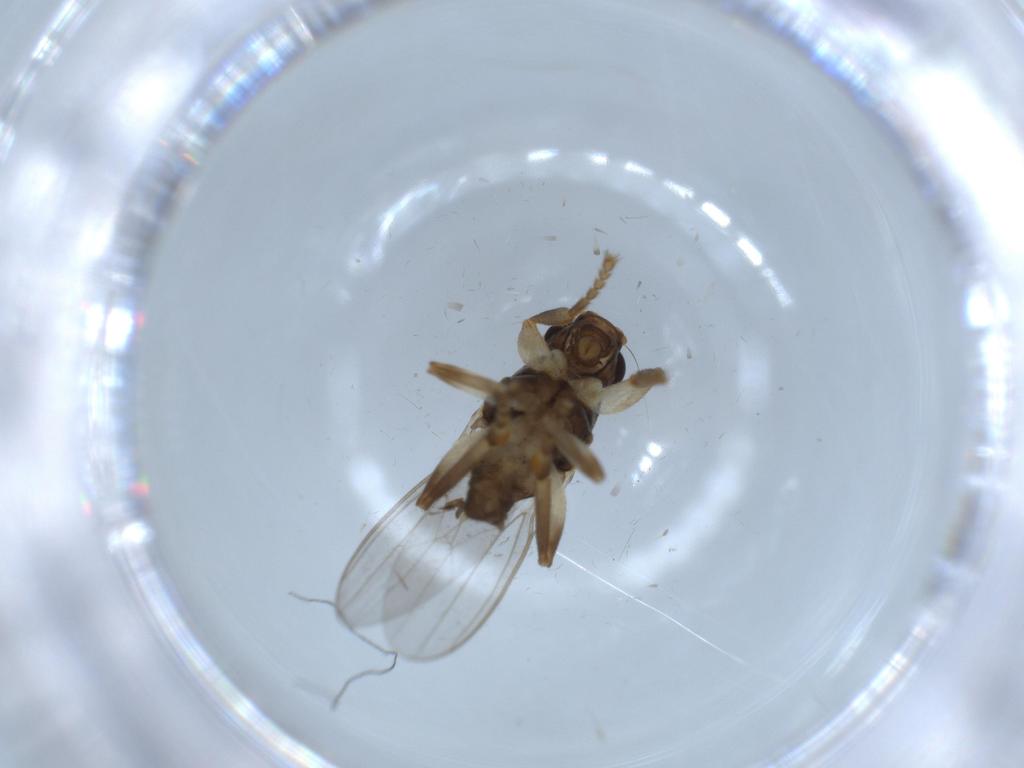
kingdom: Animalia
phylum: Arthropoda
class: Insecta
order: Diptera
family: Sphaeroceridae
